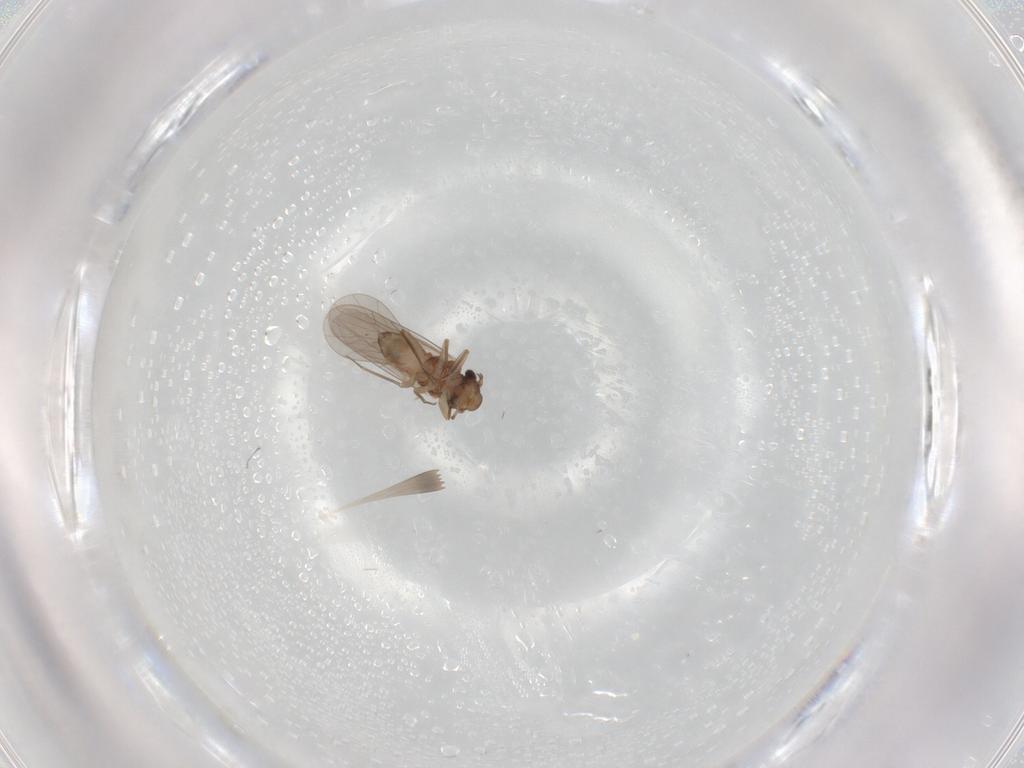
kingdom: Animalia
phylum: Arthropoda
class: Insecta
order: Psocodea
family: Lepidopsocidae
